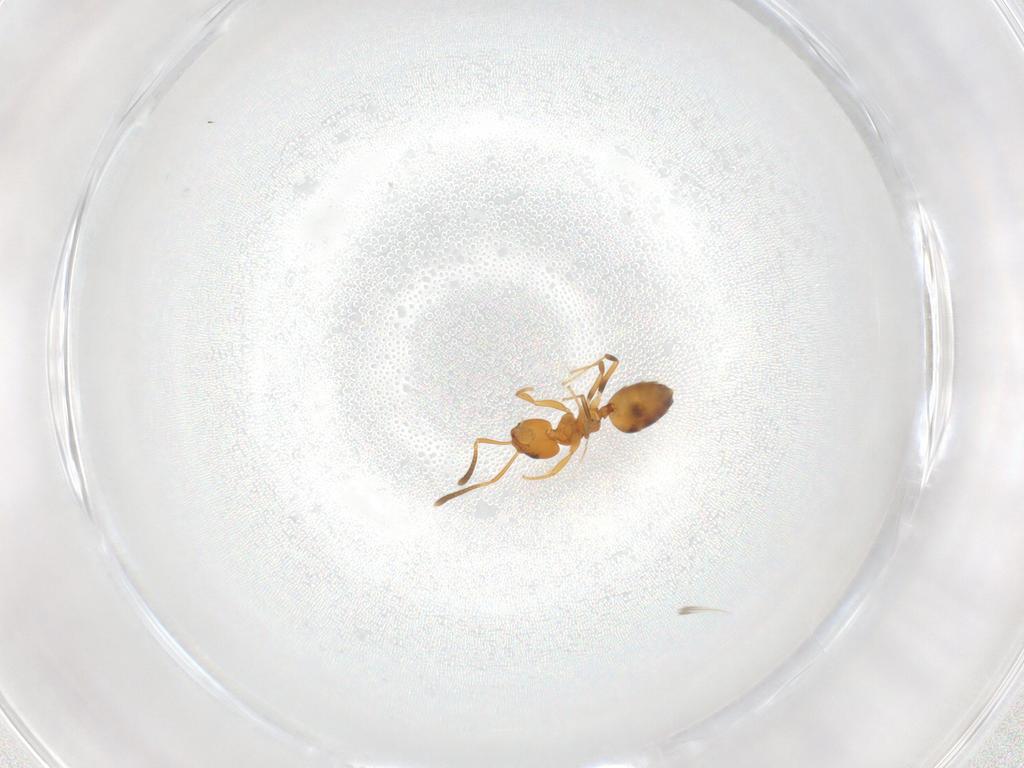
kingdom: Animalia
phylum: Arthropoda
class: Insecta
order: Hymenoptera
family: Formicidae
